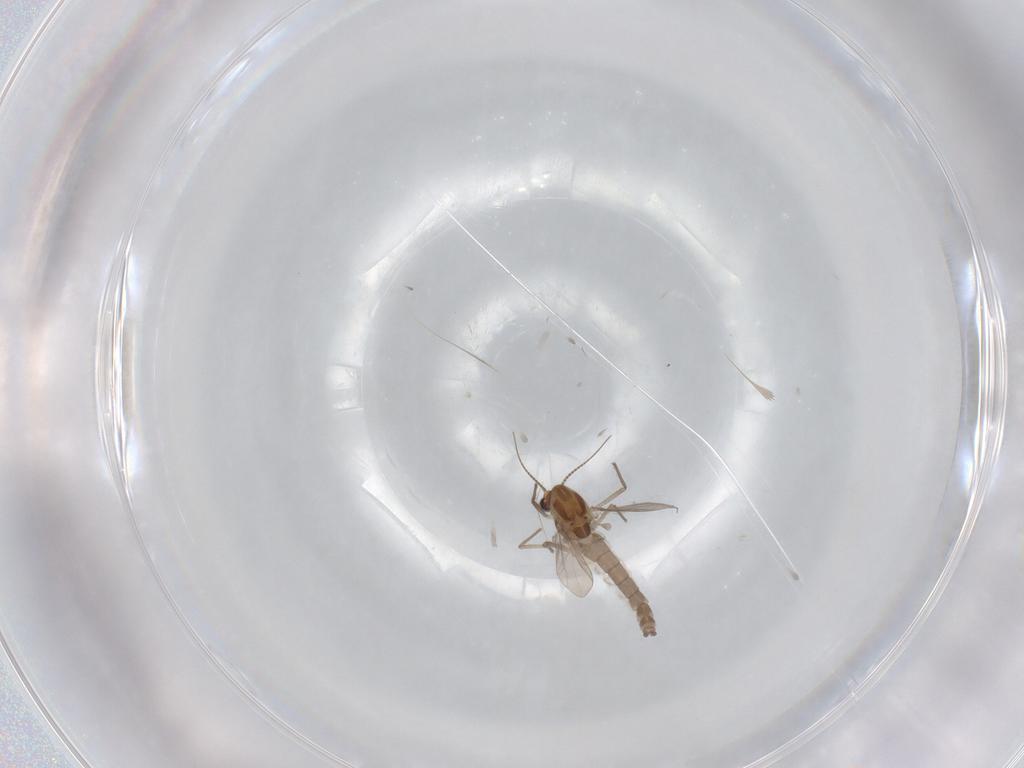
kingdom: Animalia
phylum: Arthropoda
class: Insecta
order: Diptera
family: Chironomidae
